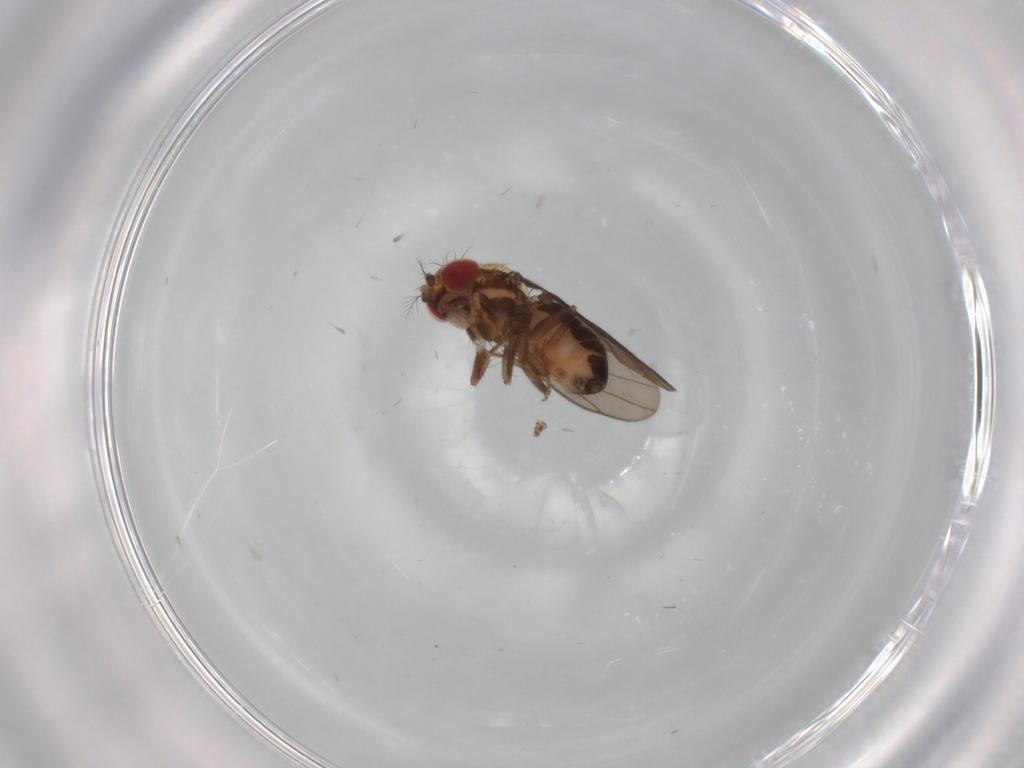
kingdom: Animalia
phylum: Arthropoda
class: Insecta
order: Diptera
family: Drosophilidae
